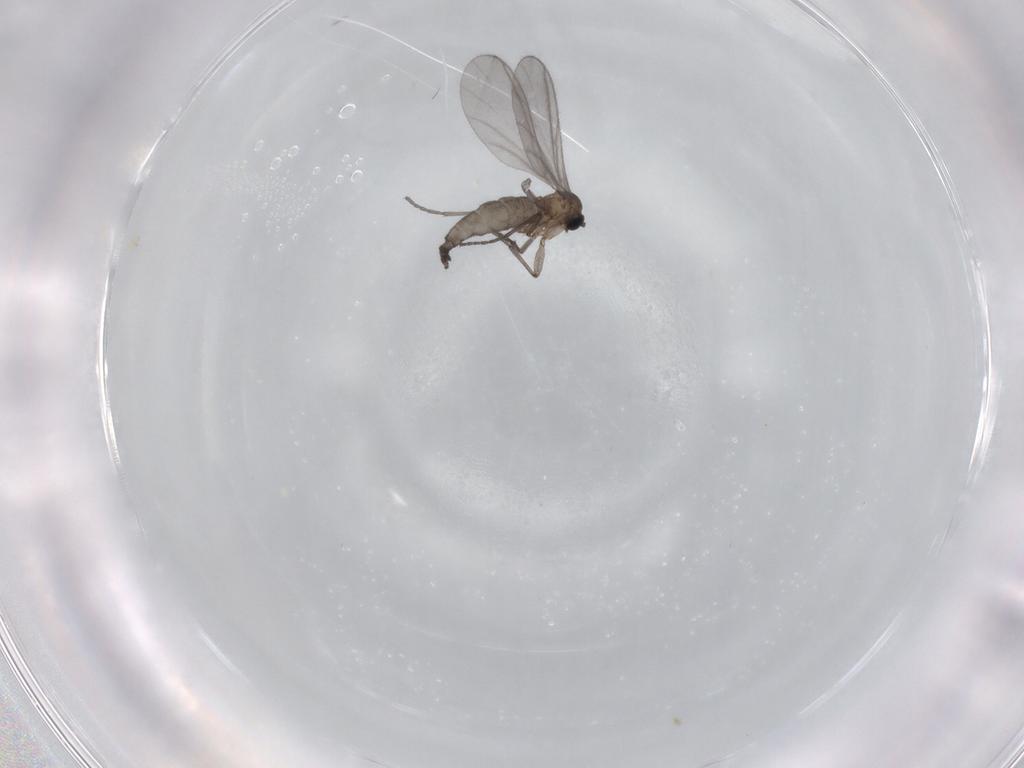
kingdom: Animalia
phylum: Arthropoda
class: Insecta
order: Diptera
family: Sciaridae
